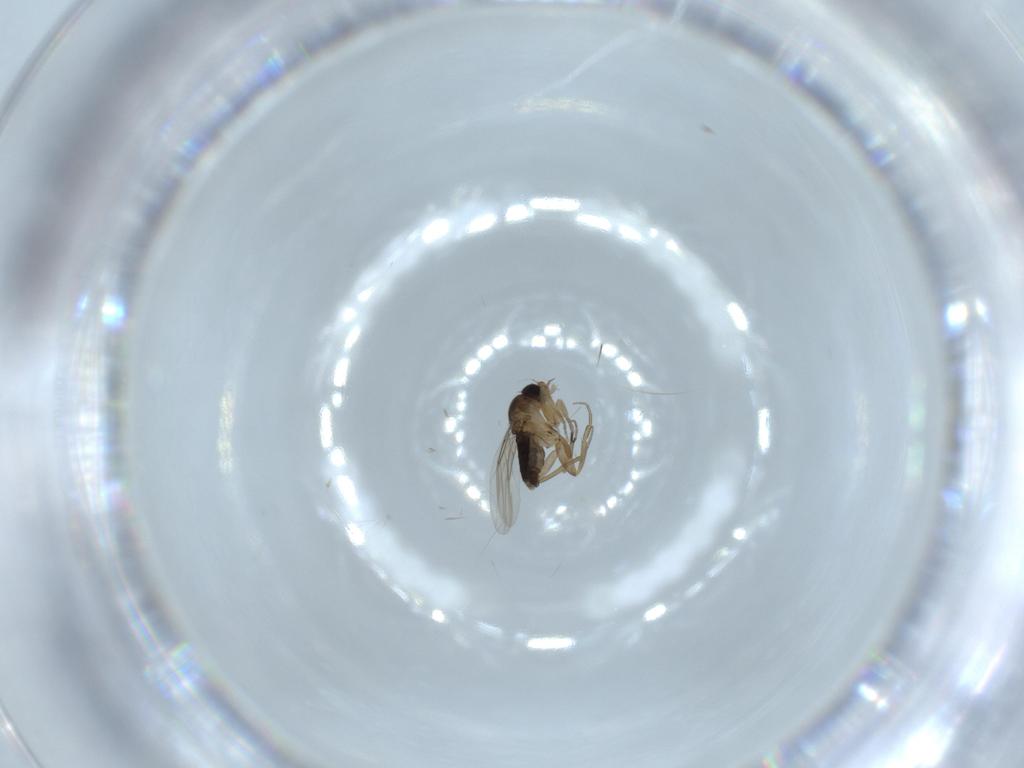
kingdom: Animalia
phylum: Arthropoda
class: Insecta
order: Diptera
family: Phoridae
